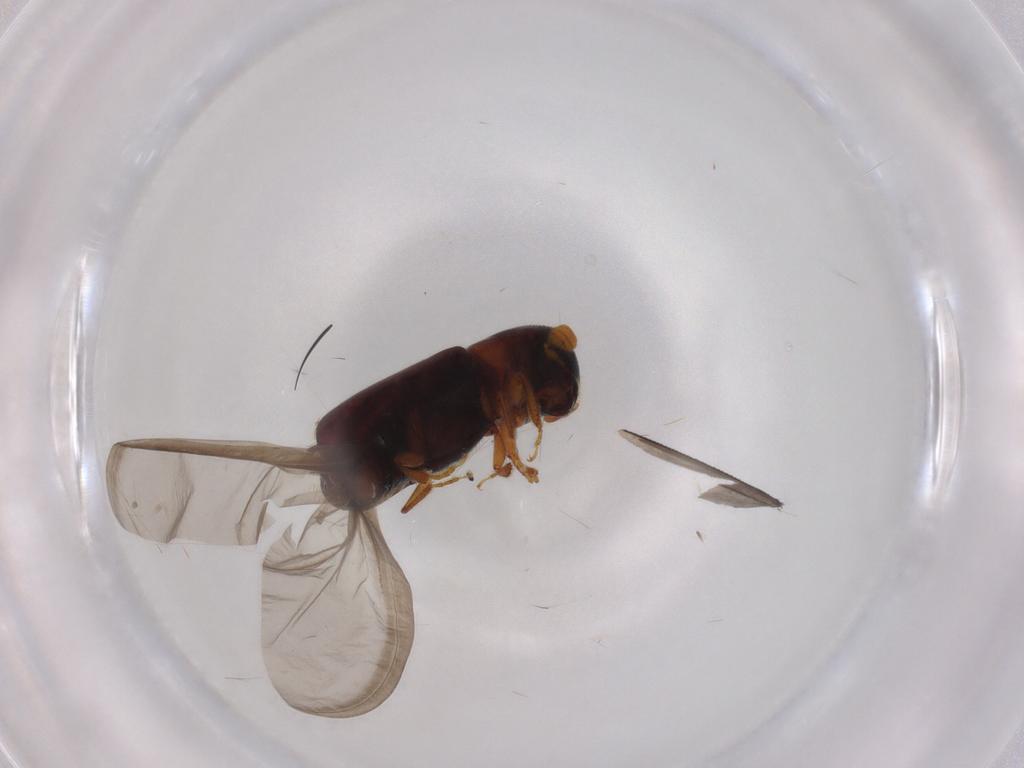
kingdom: Animalia
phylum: Arthropoda
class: Insecta
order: Coleoptera
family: Curculionidae
